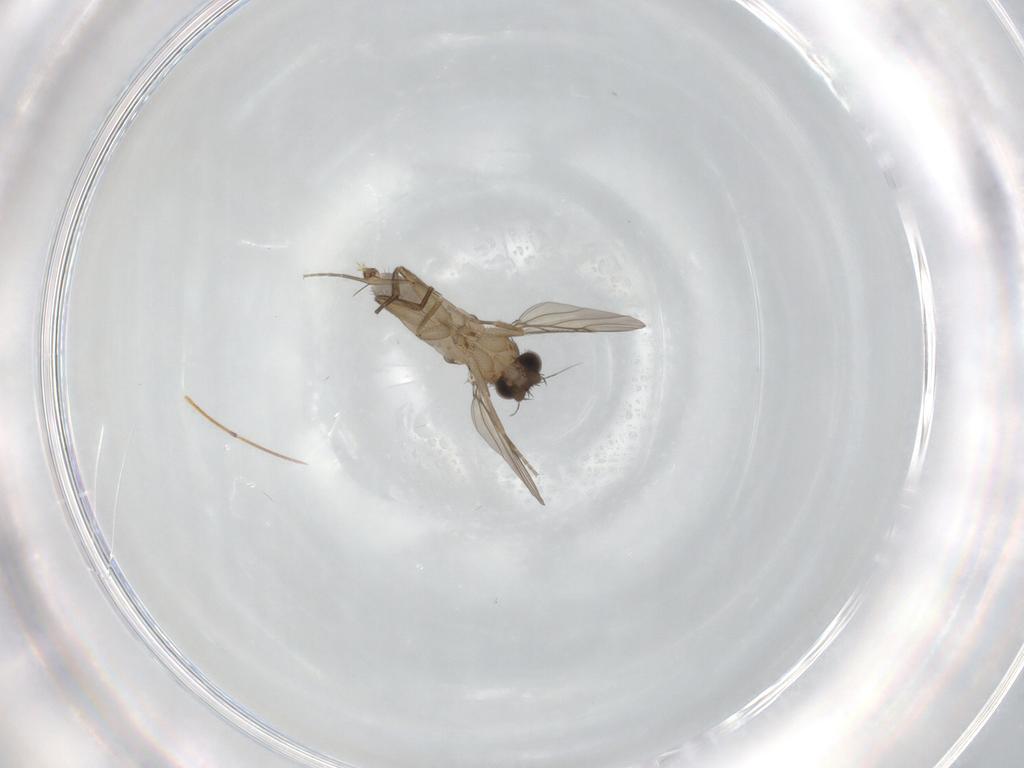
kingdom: Animalia
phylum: Arthropoda
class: Insecta
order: Diptera
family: Phoridae
